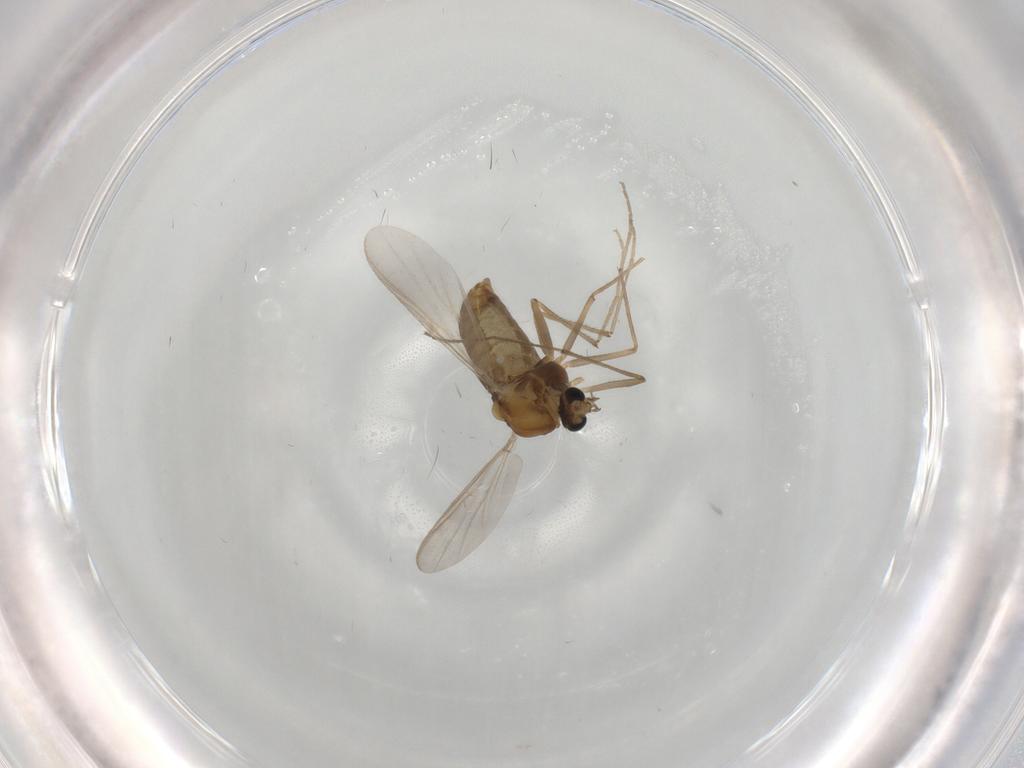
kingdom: Animalia
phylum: Arthropoda
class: Insecta
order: Diptera
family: Chironomidae
